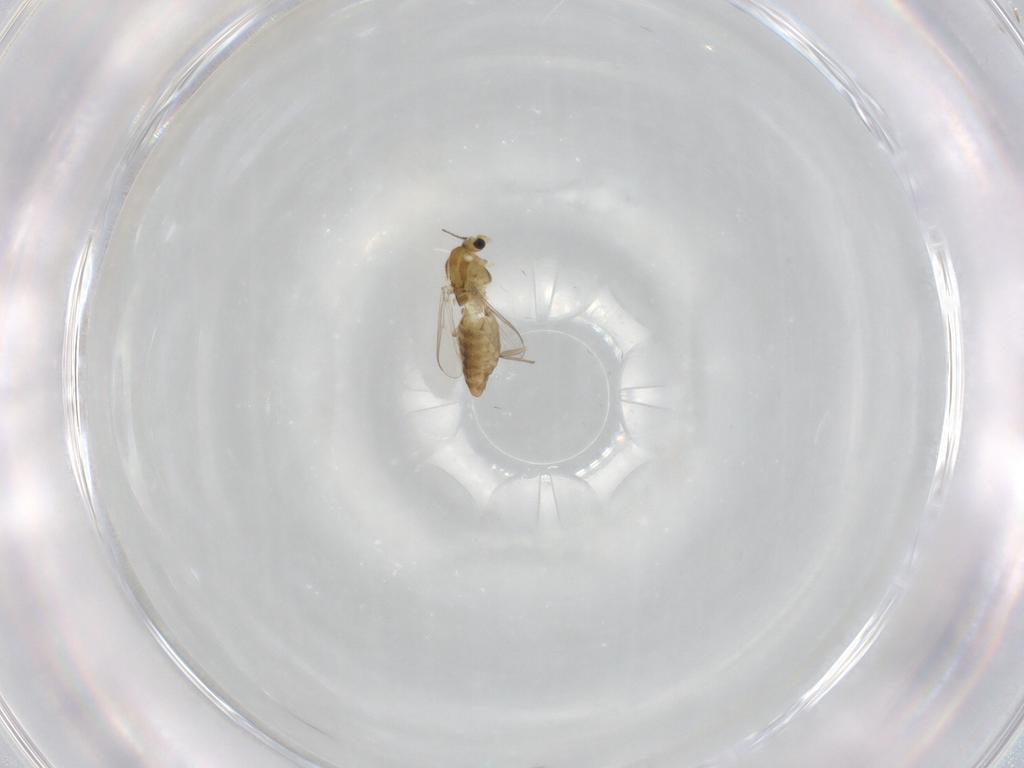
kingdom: Animalia
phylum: Arthropoda
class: Insecta
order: Diptera
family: Chironomidae
